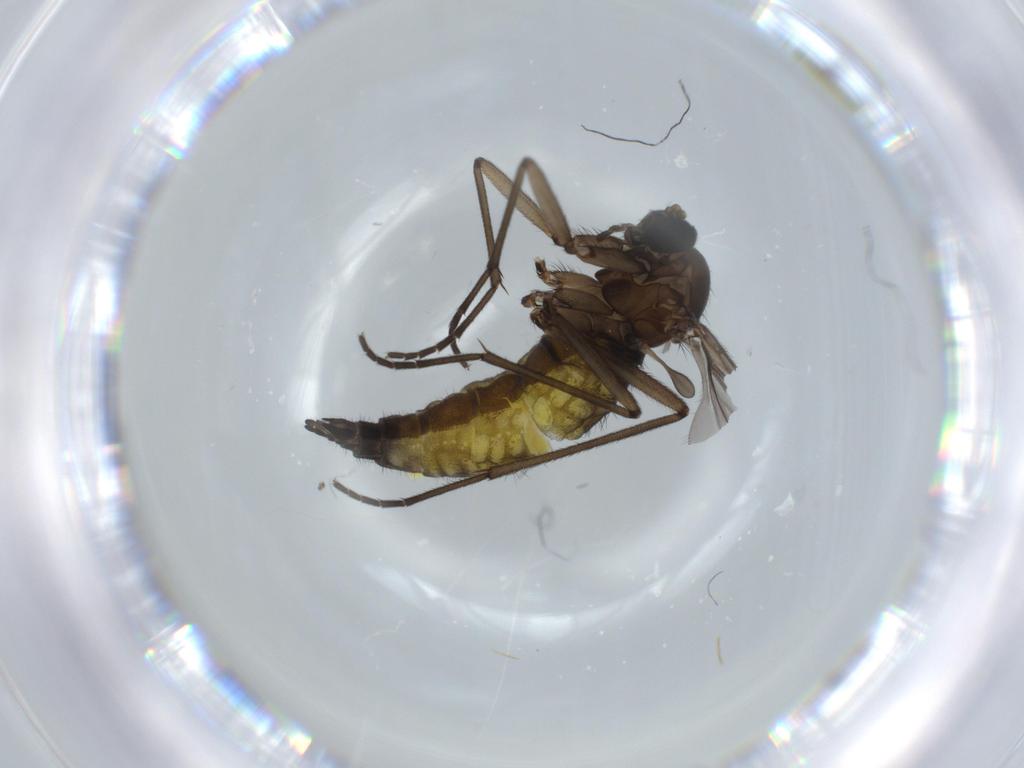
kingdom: Animalia
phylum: Arthropoda
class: Insecta
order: Diptera
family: Sciaridae
